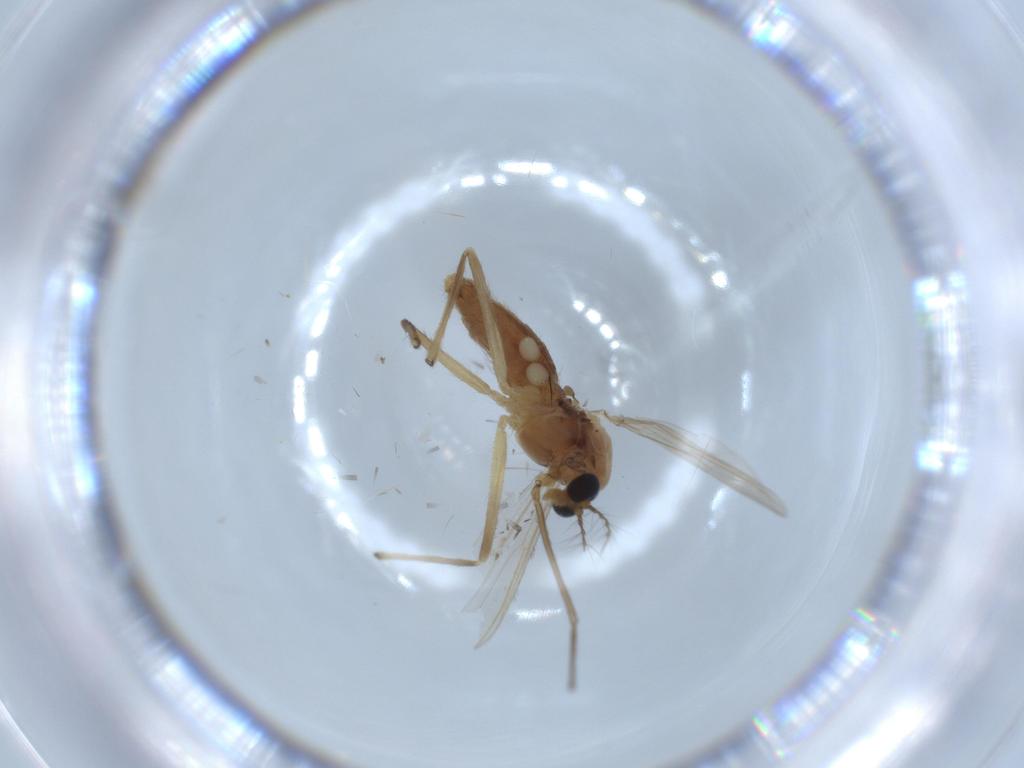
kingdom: Animalia
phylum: Arthropoda
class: Insecta
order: Diptera
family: Chironomidae
